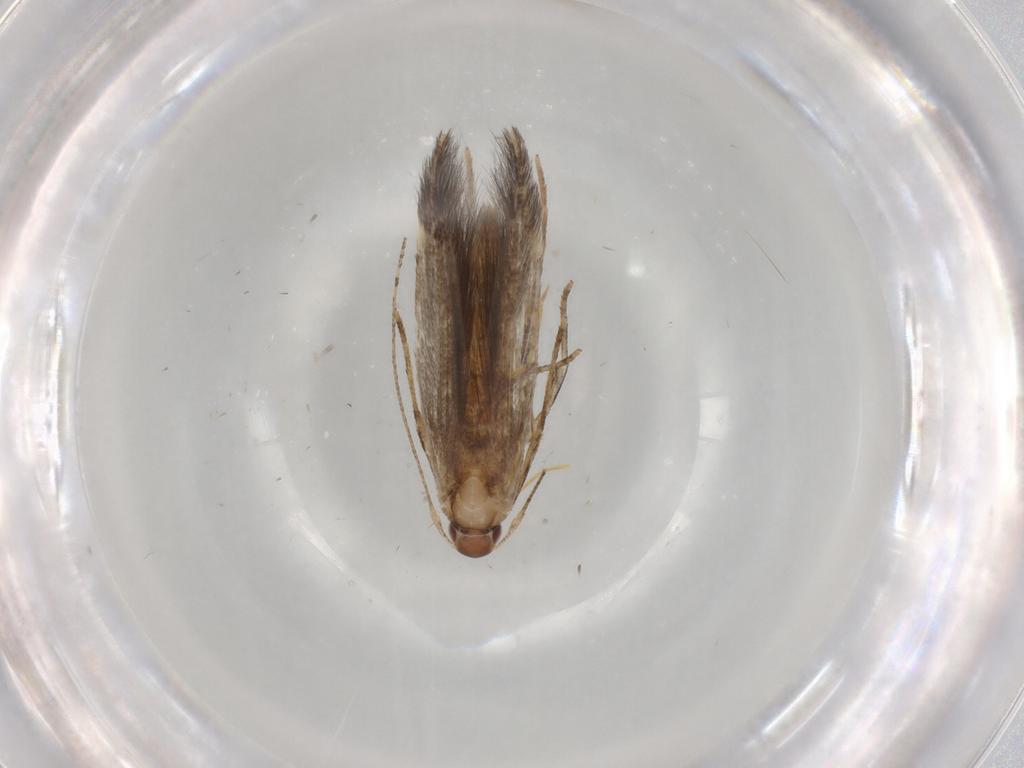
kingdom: Animalia
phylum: Arthropoda
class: Insecta
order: Lepidoptera
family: Cosmopterigidae
